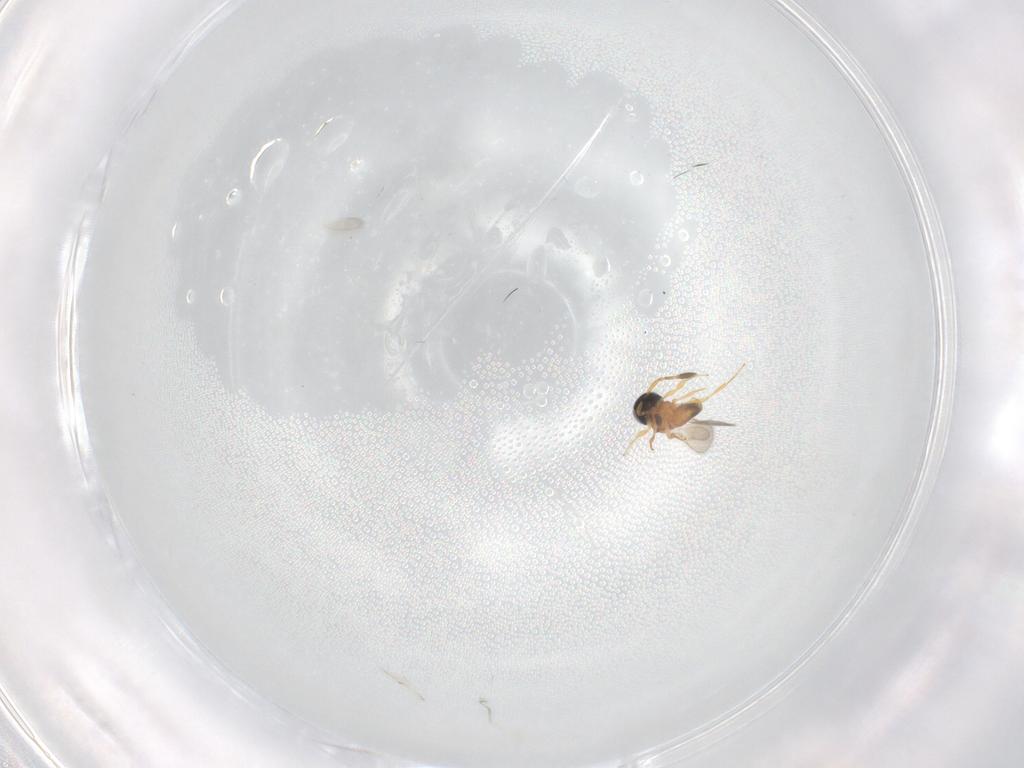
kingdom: Animalia
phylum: Arthropoda
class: Insecta
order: Hymenoptera
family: Scelionidae
